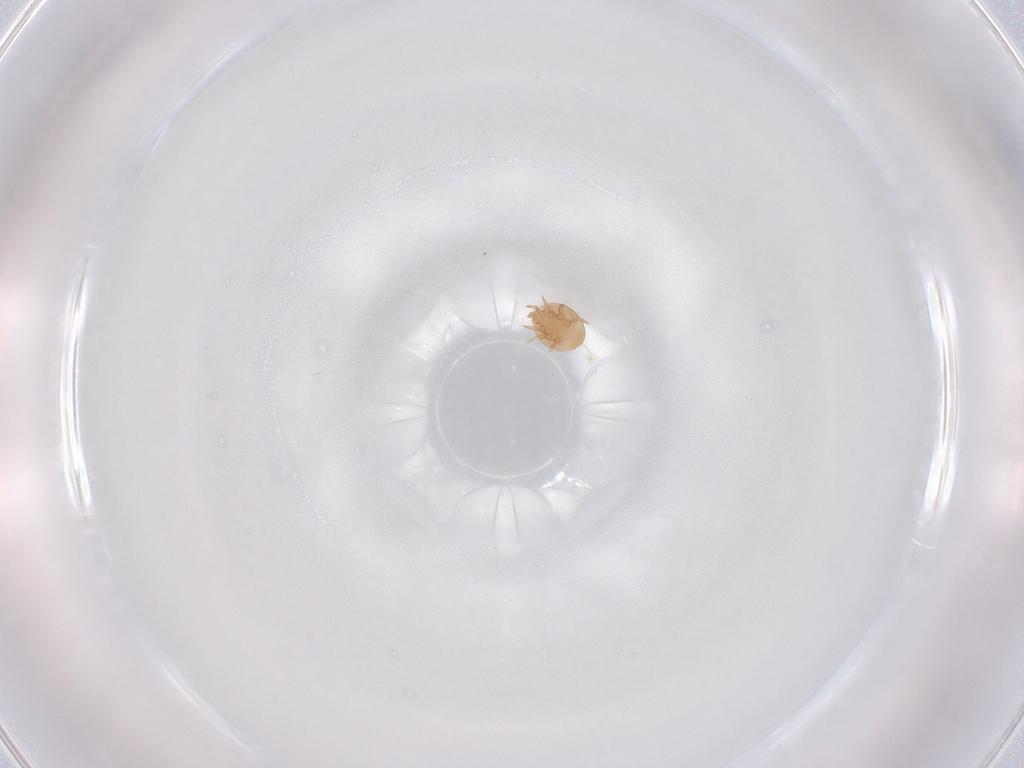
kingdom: Animalia
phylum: Arthropoda
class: Arachnida
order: Mesostigmata
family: Trematuridae
